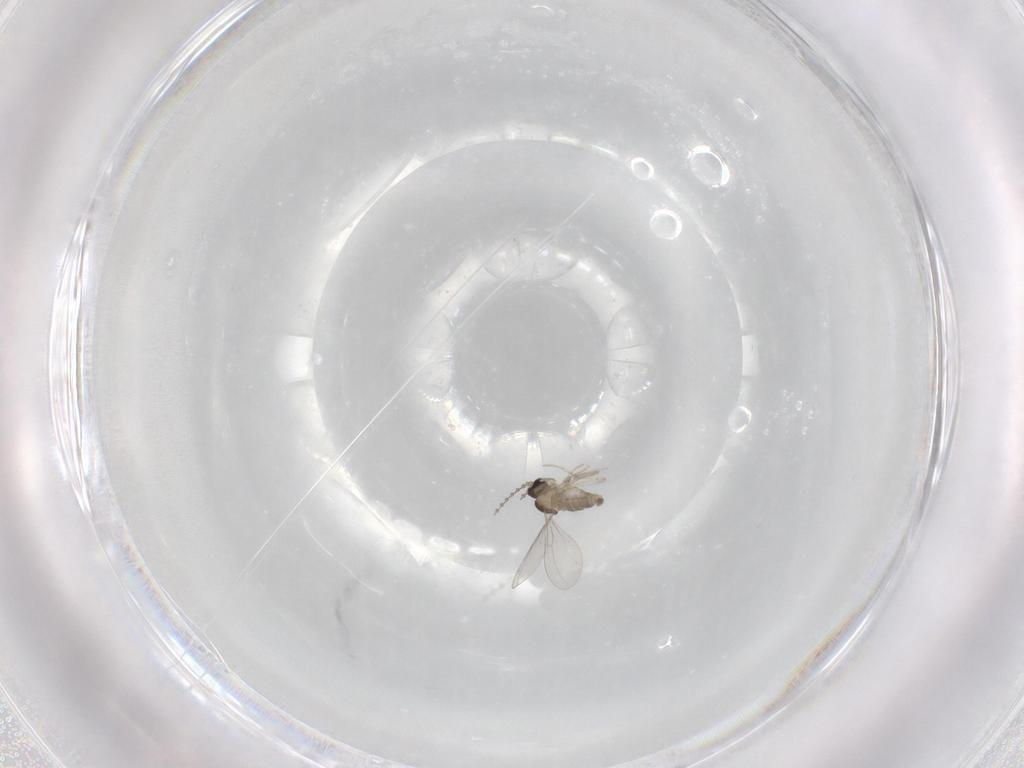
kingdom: Animalia
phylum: Arthropoda
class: Insecta
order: Diptera
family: Cecidomyiidae
